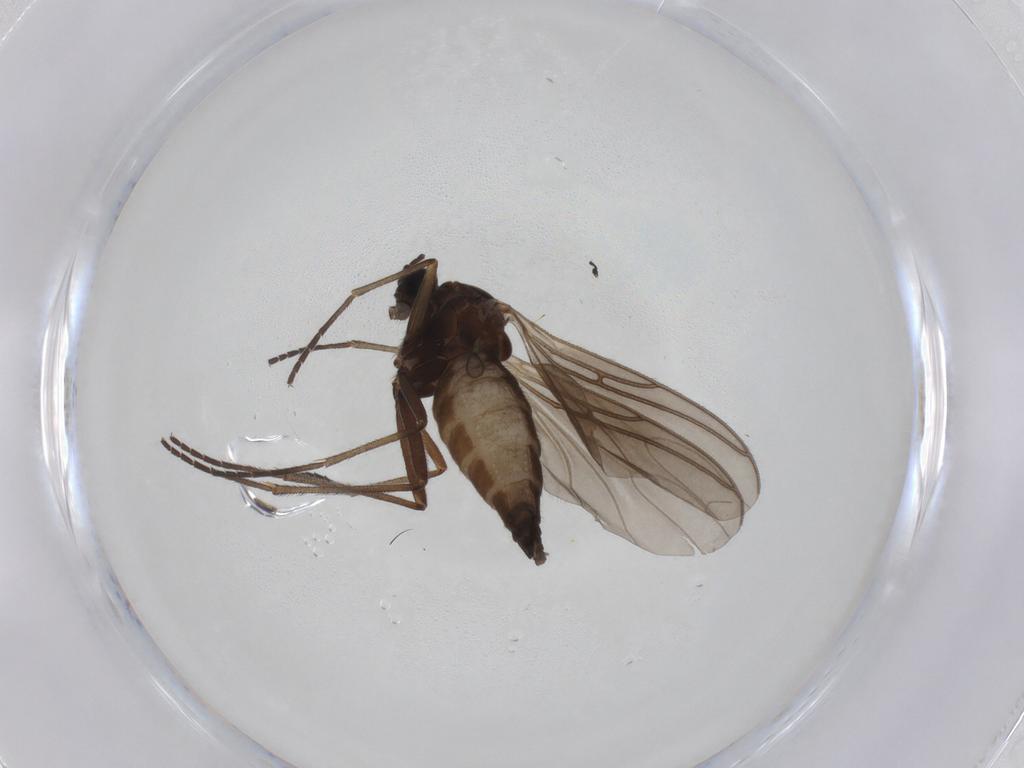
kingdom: Animalia
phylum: Arthropoda
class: Insecta
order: Diptera
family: Sciaridae
